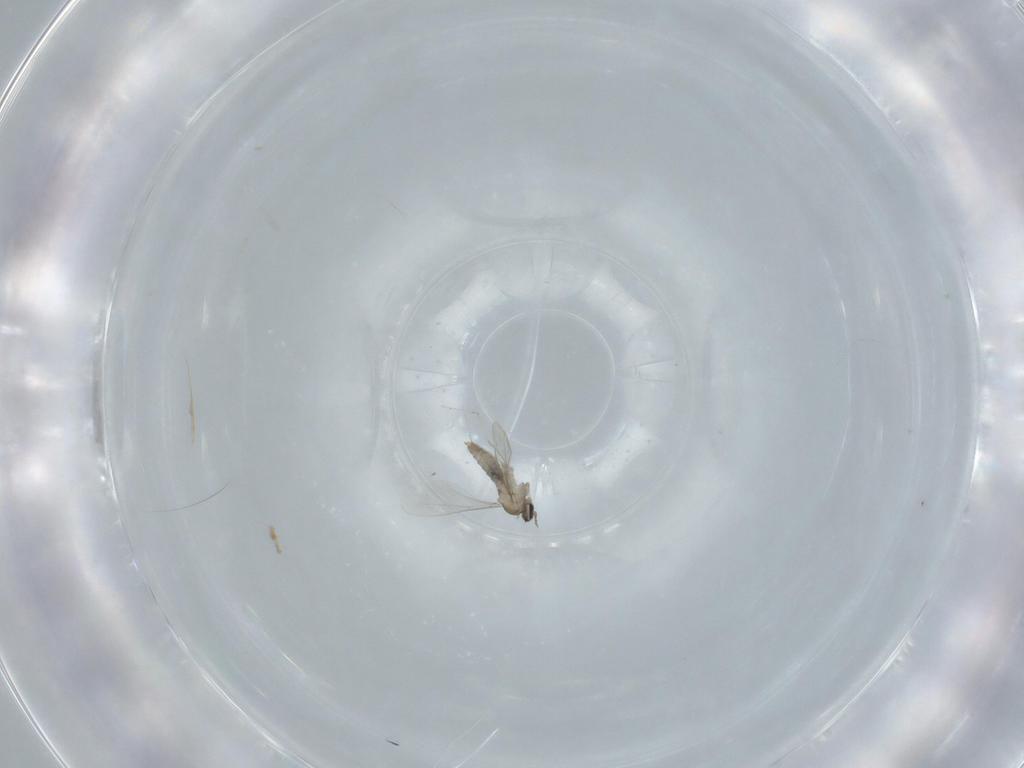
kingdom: Animalia
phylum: Arthropoda
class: Insecta
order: Diptera
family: Cecidomyiidae
